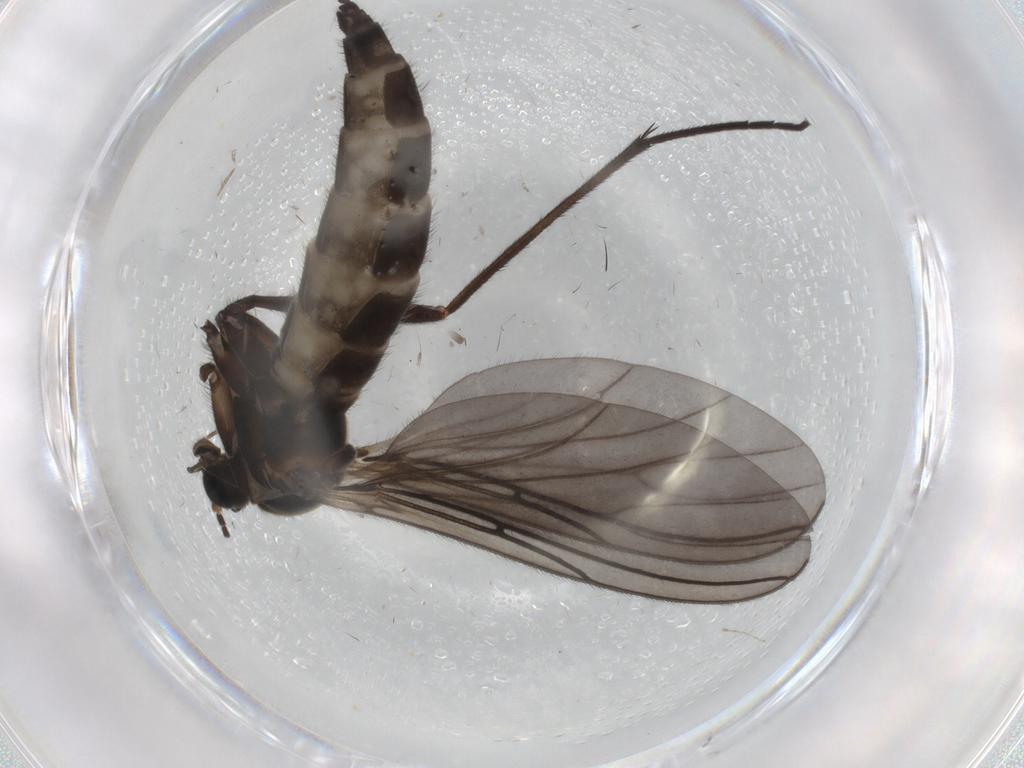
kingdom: Animalia
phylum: Arthropoda
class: Insecta
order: Diptera
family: Sciaridae
